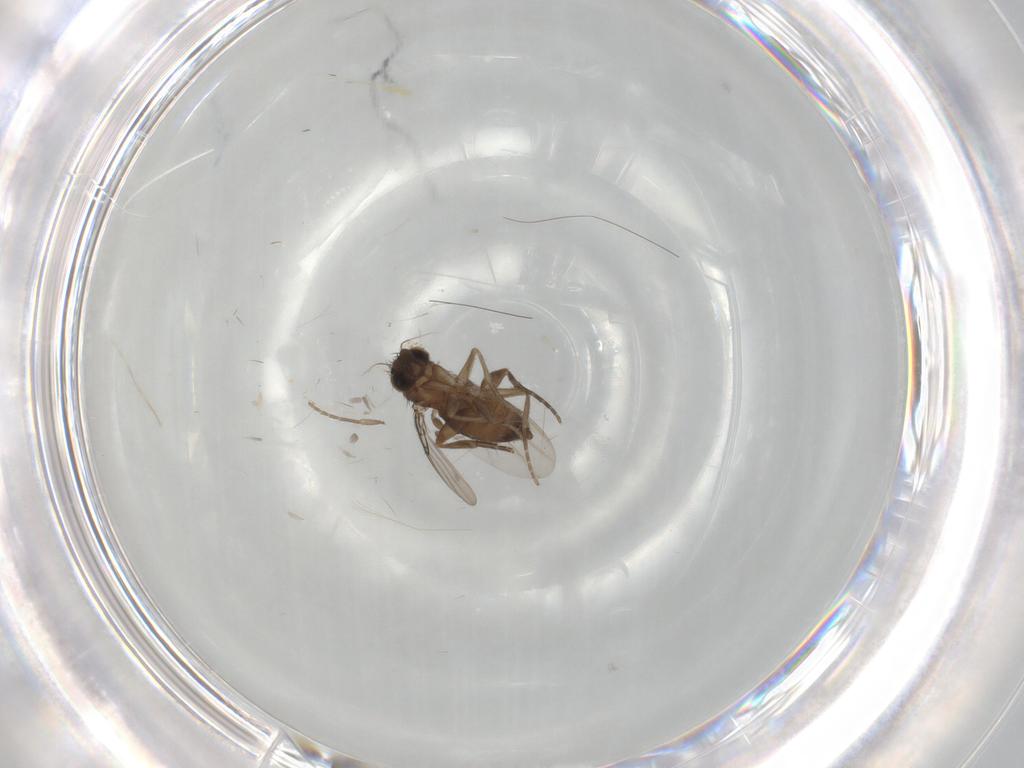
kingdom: Animalia
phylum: Arthropoda
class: Insecta
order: Diptera
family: Phoridae
